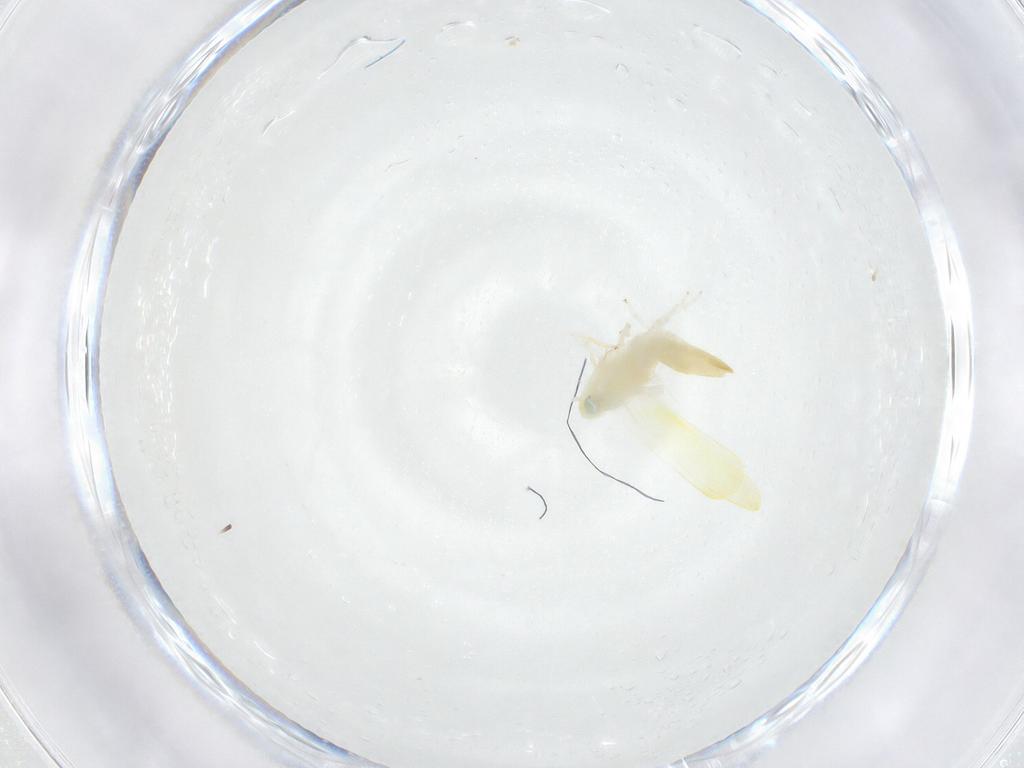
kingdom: Animalia
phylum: Arthropoda
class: Insecta
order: Hemiptera
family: Cicadellidae
